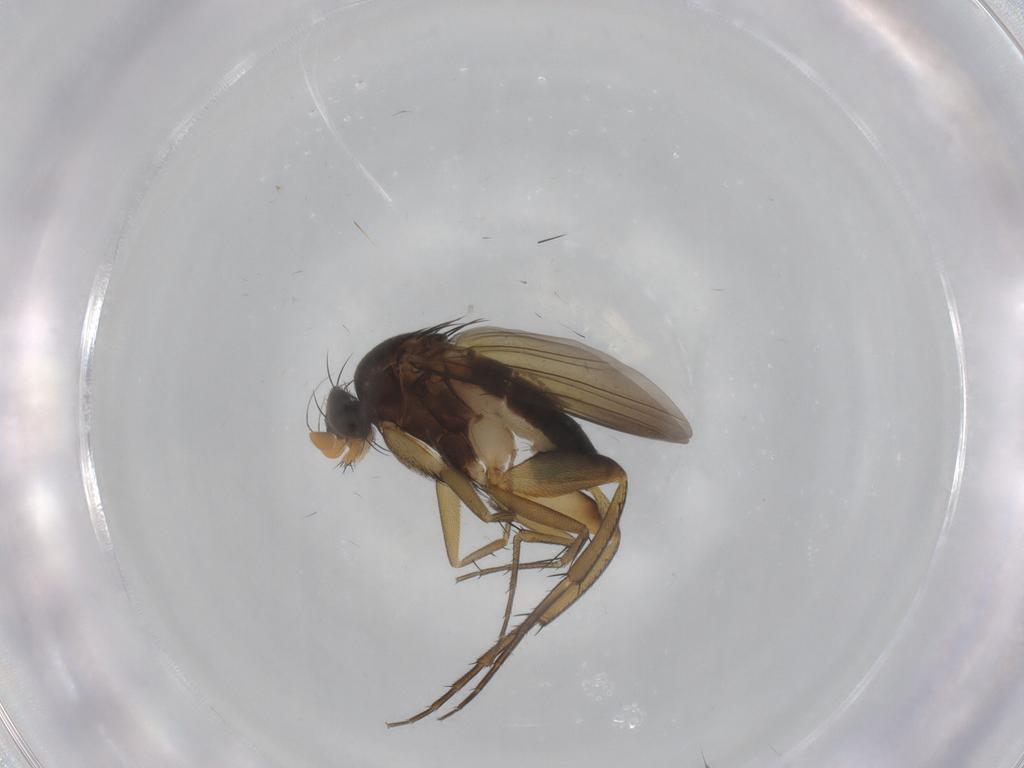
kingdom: Animalia
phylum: Arthropoda
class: Insecta
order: Diptera
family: Phoridae
